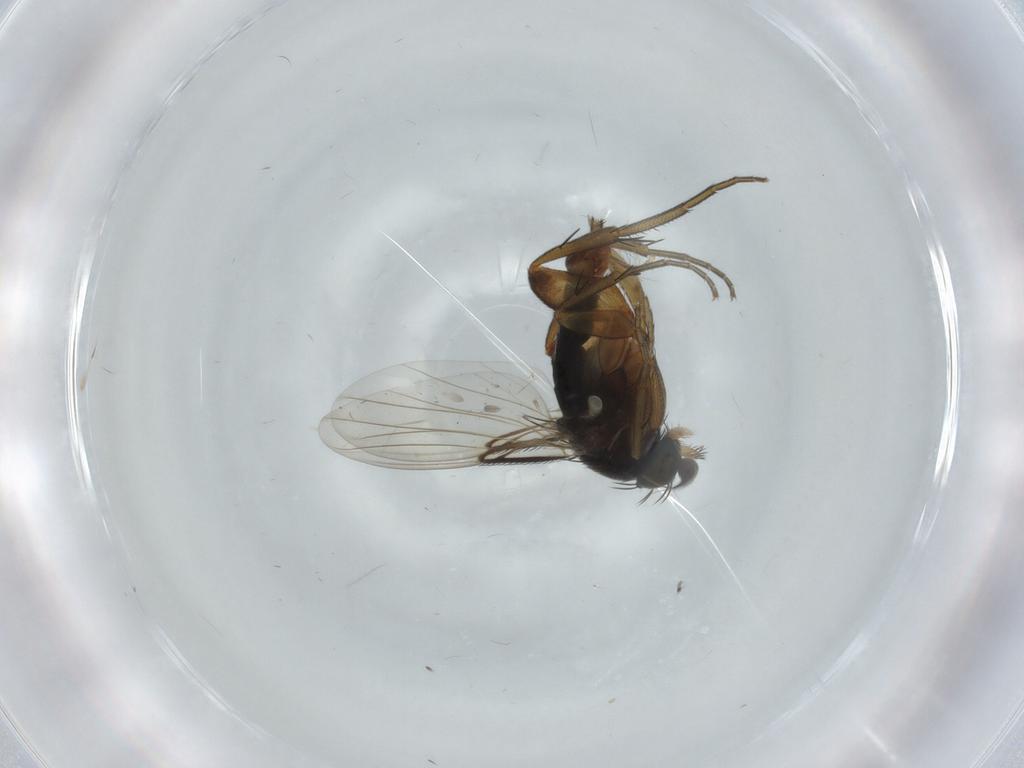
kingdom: Animalia
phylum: Arthropoda
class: Insecta
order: Diptera
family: Phoridae
